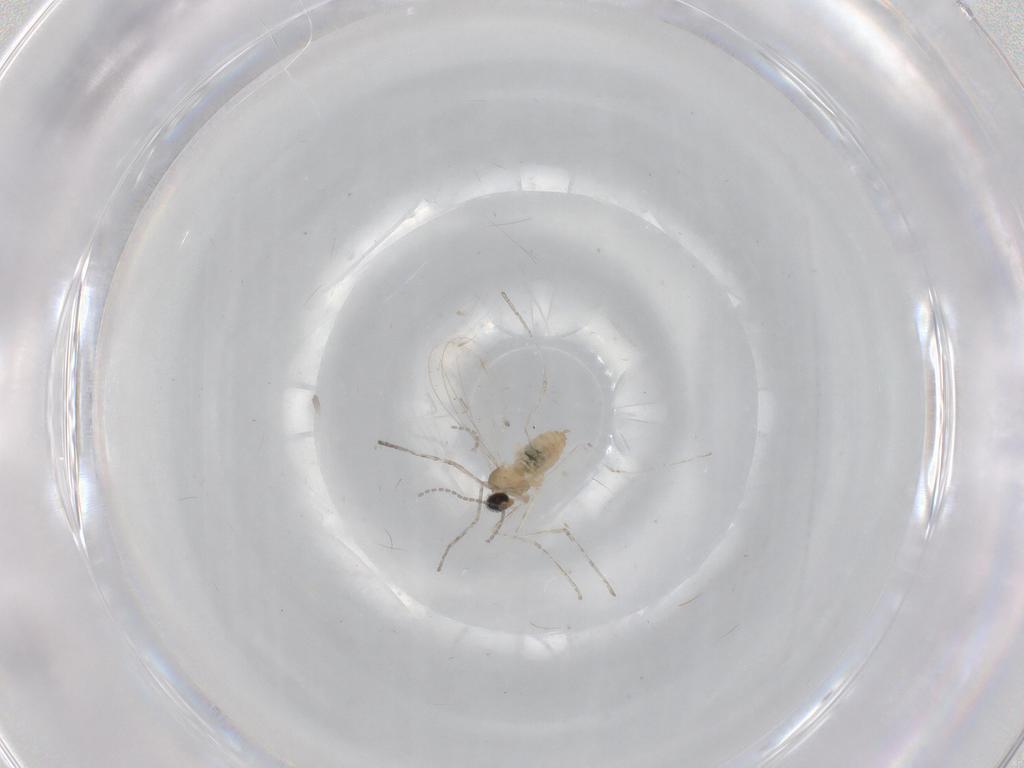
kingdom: Animalia
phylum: Arthropoda
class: Insecta
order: Diptera
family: Cecidomyiidae
